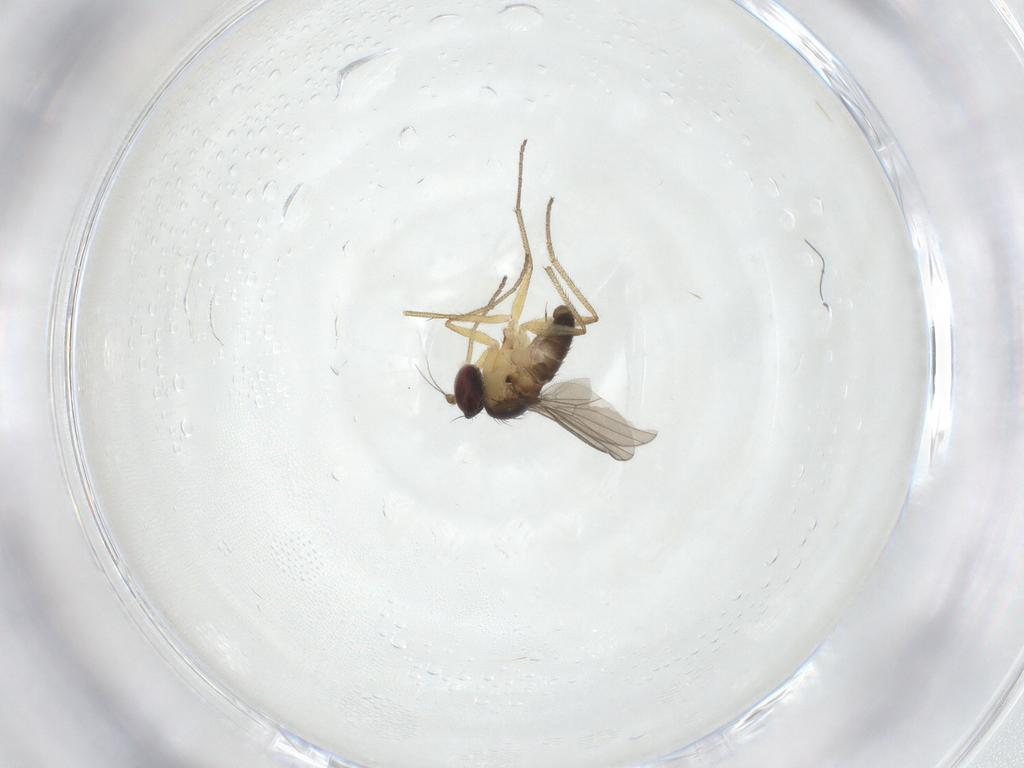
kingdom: Animalia
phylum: Arthropoda
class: Insecta
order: Diptera
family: Dolichopodidae
